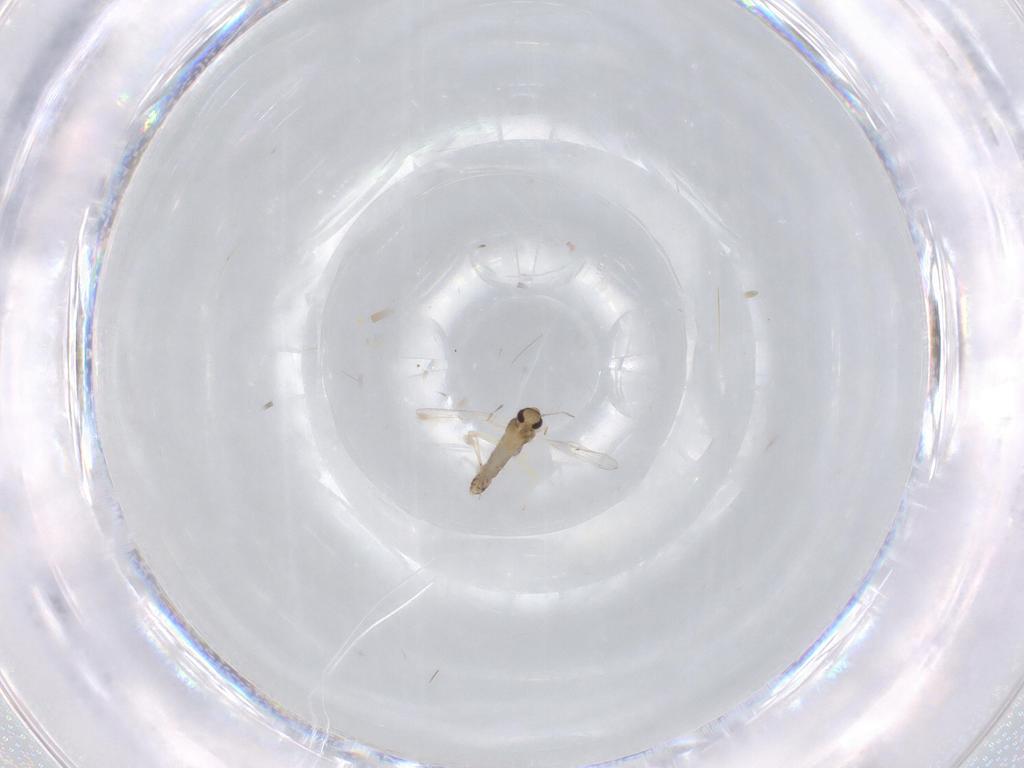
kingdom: Animalia
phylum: Arthropoda
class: Insecta
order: Diptera
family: Chironomidae
